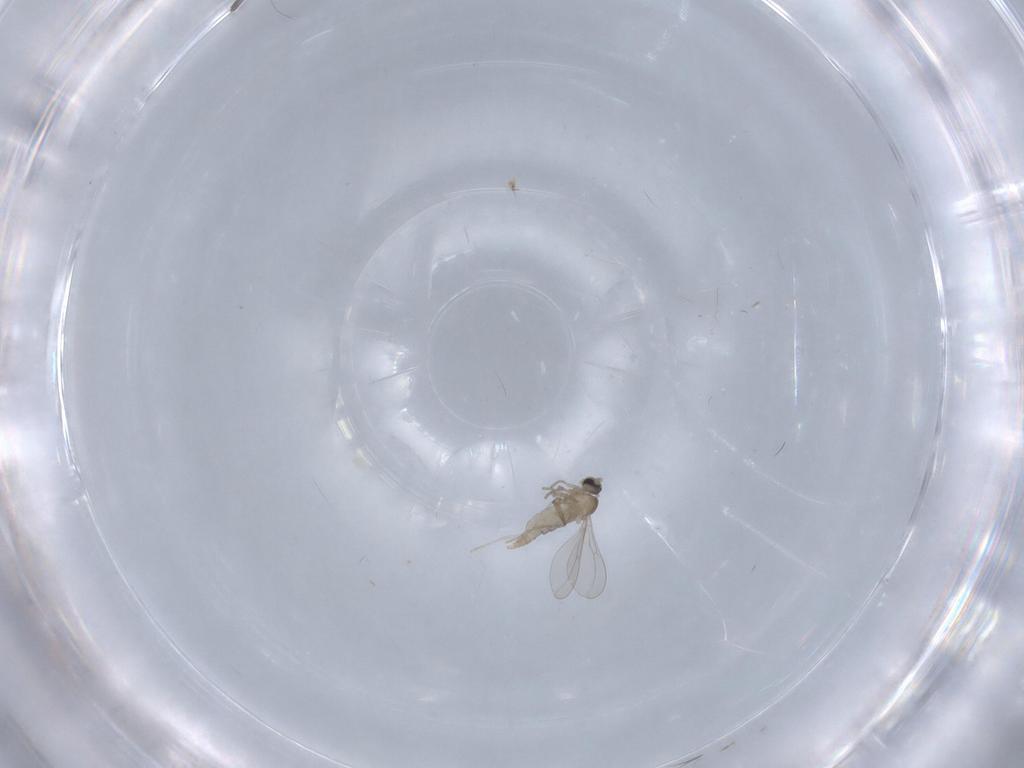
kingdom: Animalia
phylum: Arthropoda
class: Insecta
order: Diptera
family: Cecidomyiidae
